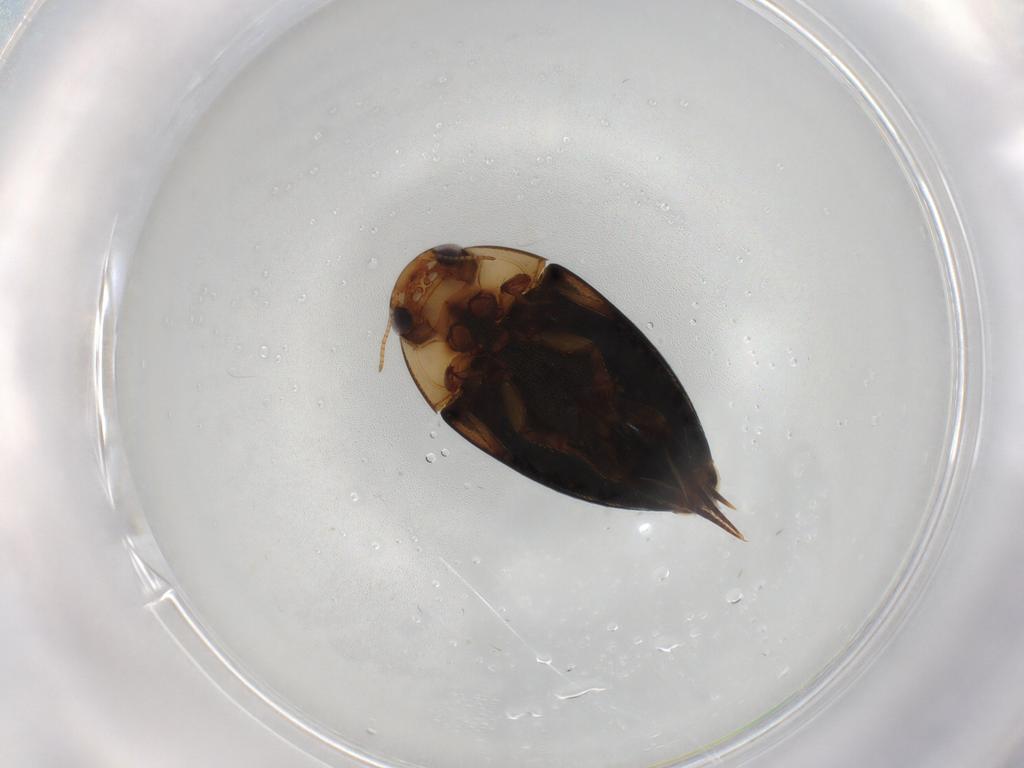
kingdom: Animalia
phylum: Arthropoda
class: Insecta
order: Coleoptera
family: Noteridae
